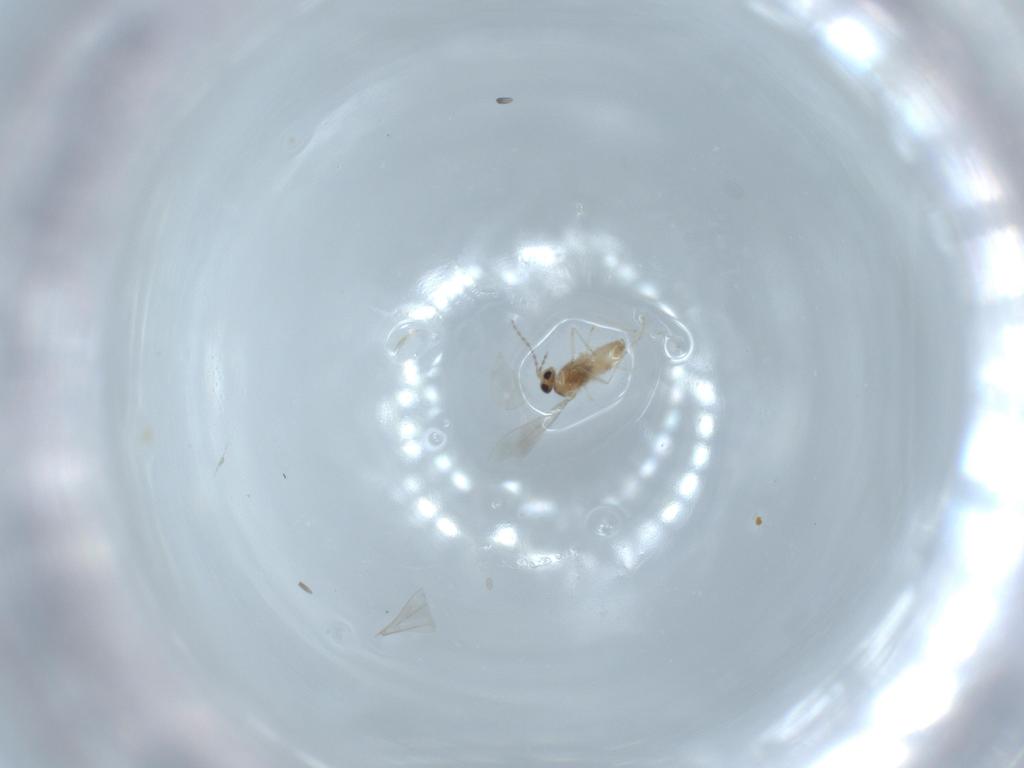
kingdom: Animalia
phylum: Arthropoda
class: Insecta
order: Diptera
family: Cecidomyiidae
